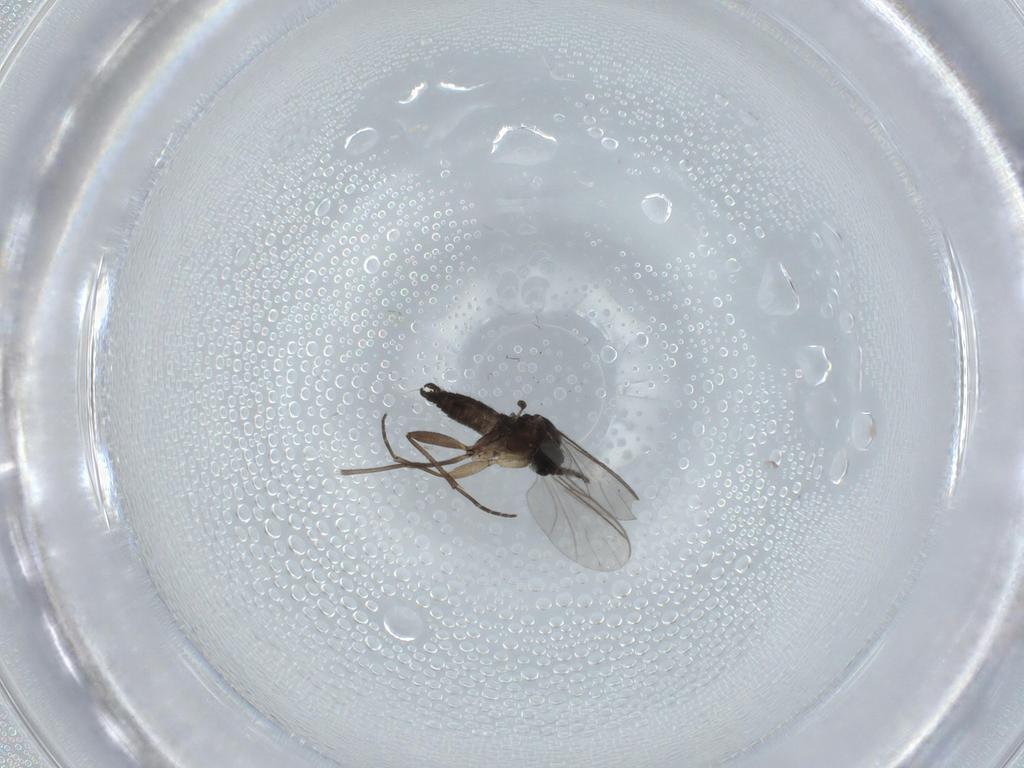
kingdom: Animalia
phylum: Arthropoda
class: Insecta
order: Diptera
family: Sciaridae
